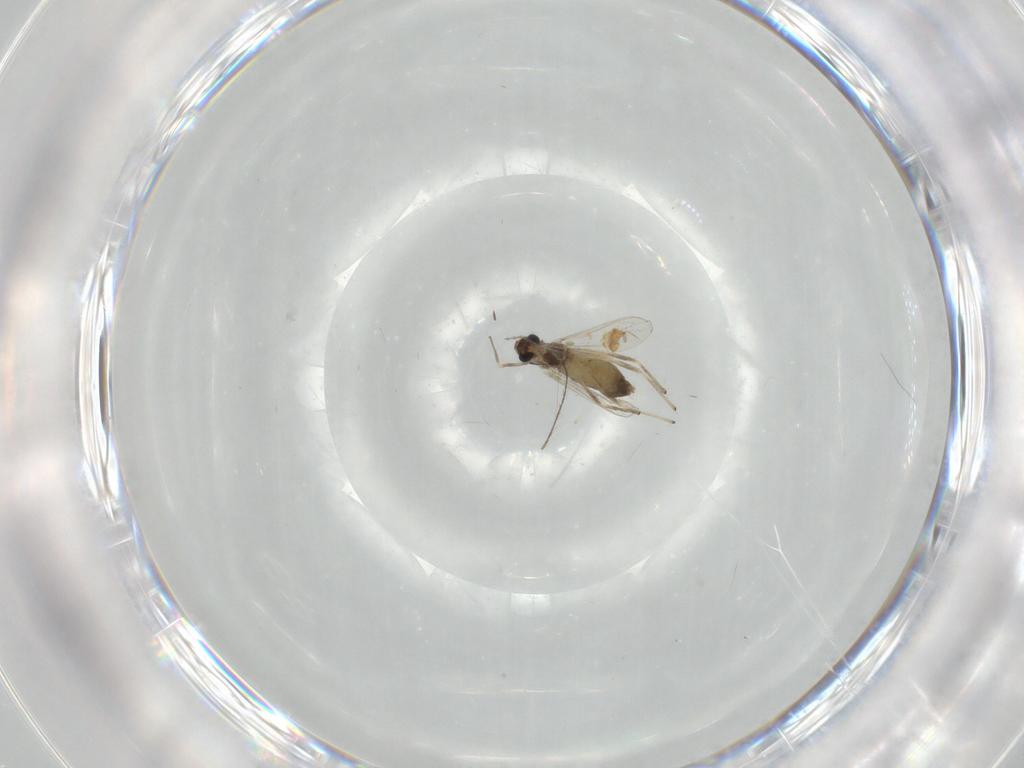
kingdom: Animalia
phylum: Arthropoda
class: Insecta
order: Diptera
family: Chironomidae
